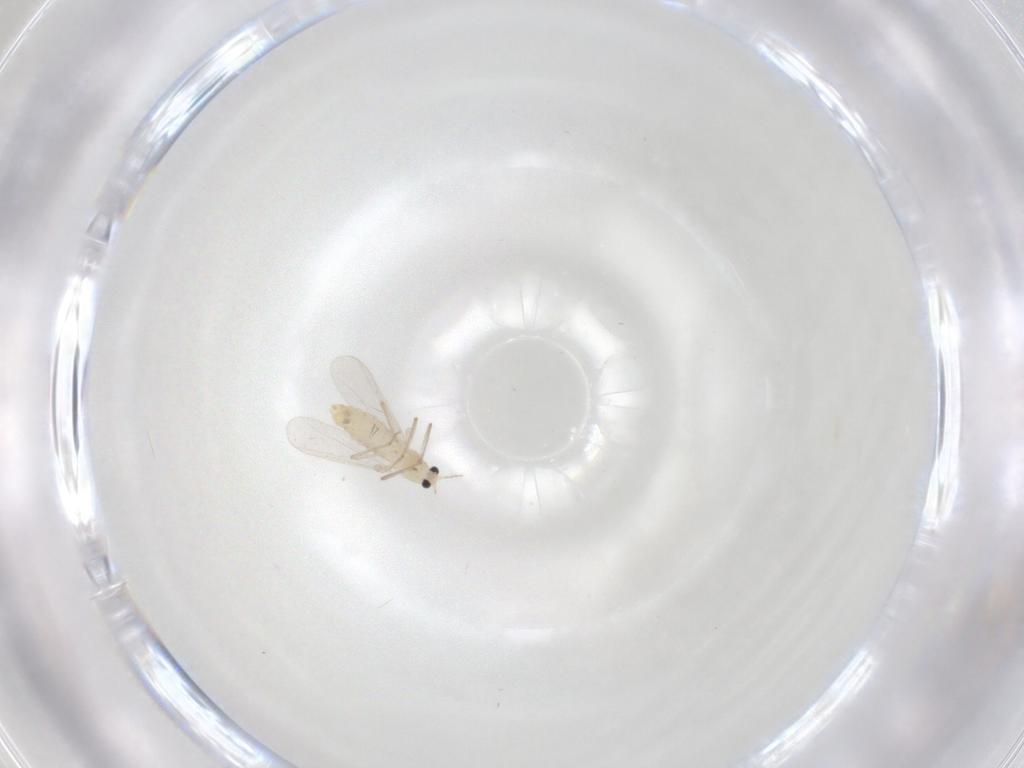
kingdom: Animalia
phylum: Arthropoda
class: Insecta
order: Diptera
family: Chironomidae
